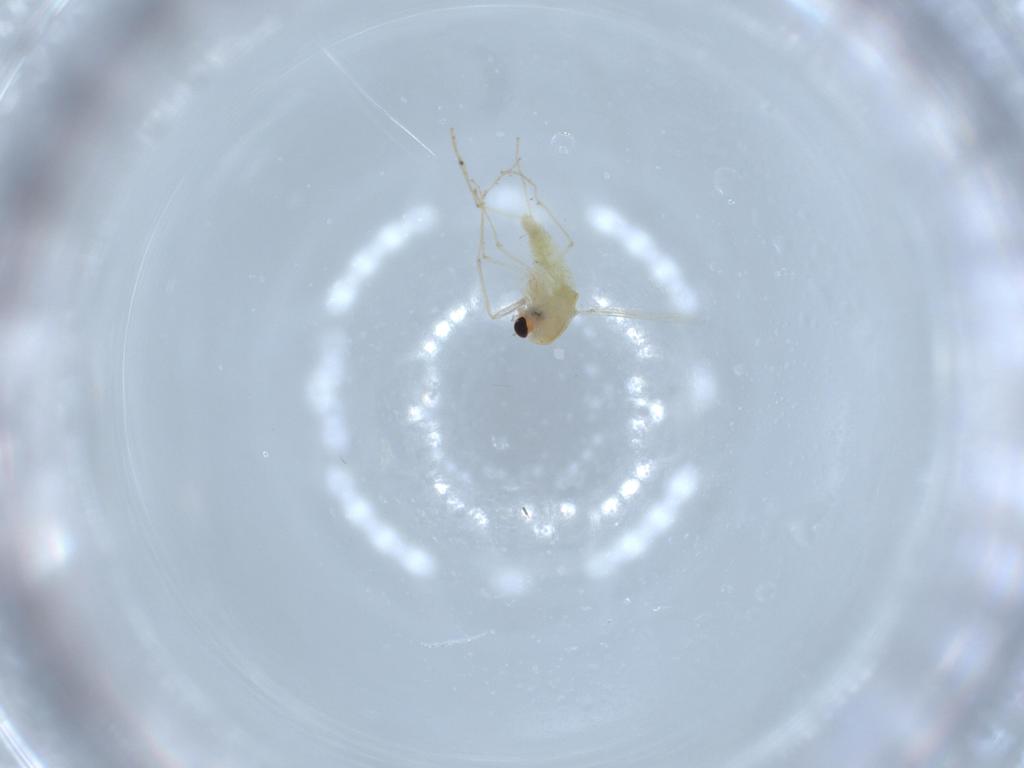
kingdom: Animalia
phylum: Arthropoda
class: Insecta
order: Diptera
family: Chironomidae
